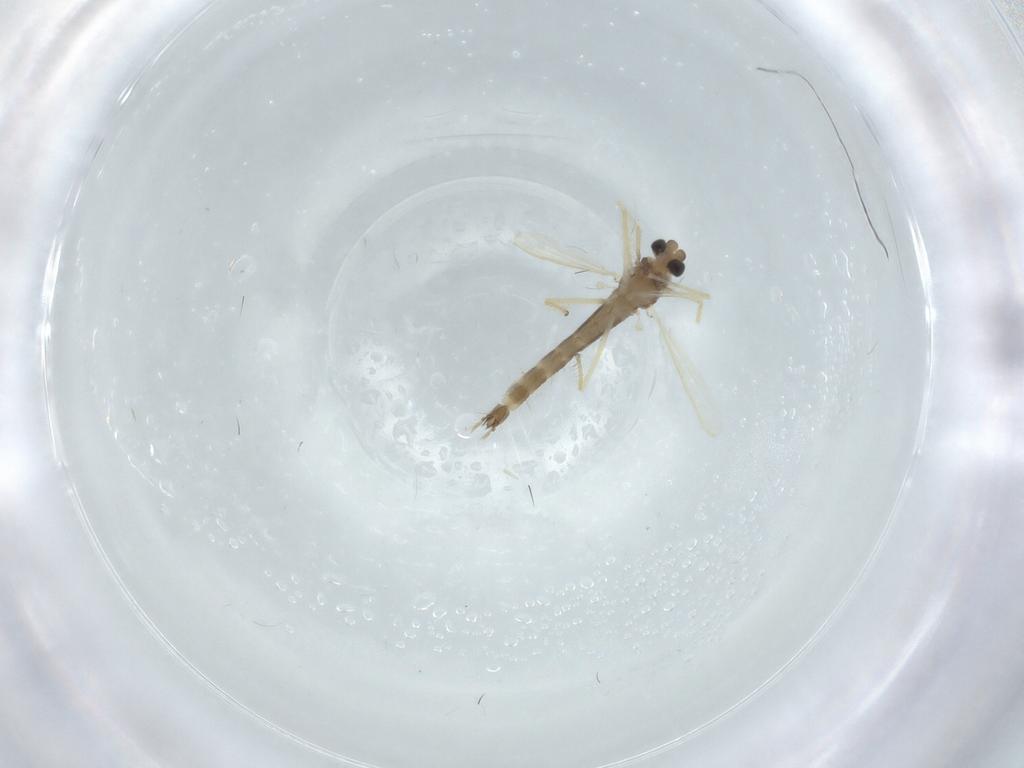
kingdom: Animalia
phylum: Arthropoda
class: Insecta
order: Diptera
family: Chironomidae
